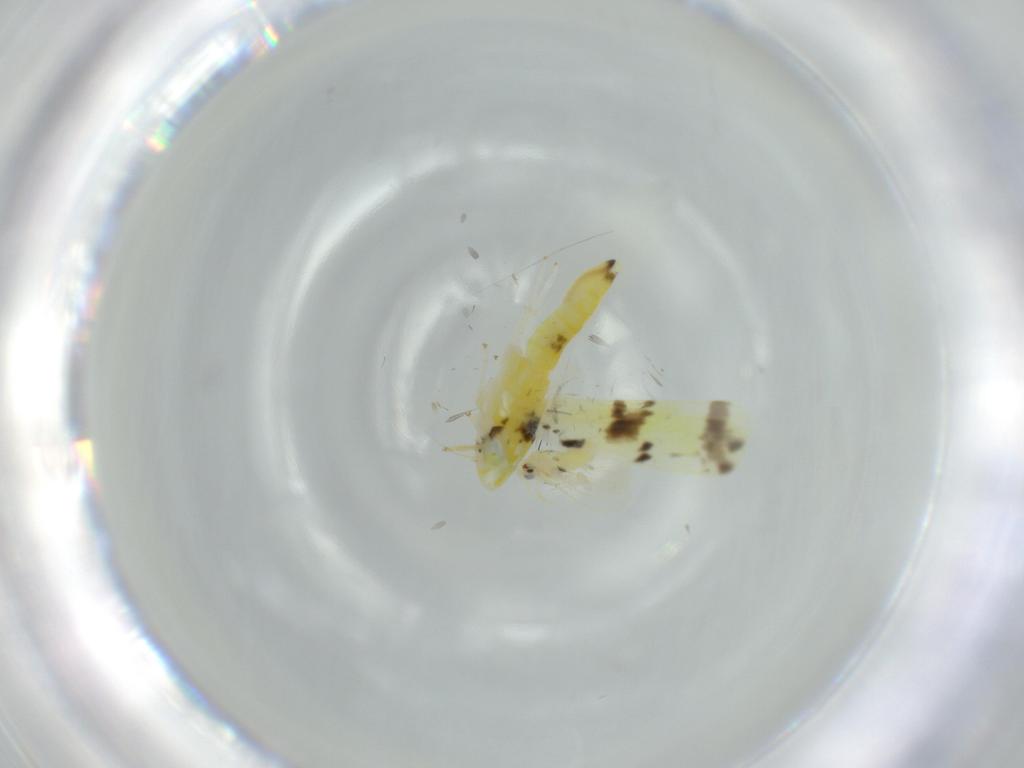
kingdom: Animalia
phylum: Arthropoda
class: Insecta
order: Hemiptera
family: Aleyrodidae
